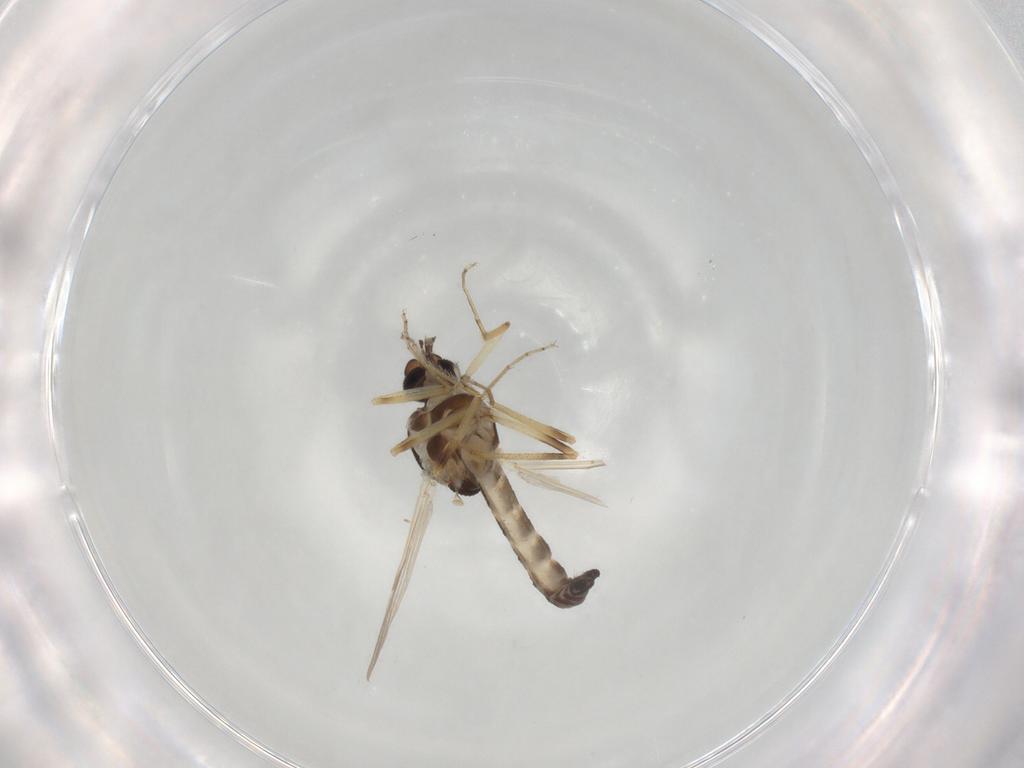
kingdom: Animalia
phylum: Arthropoda
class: Insecta
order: Diptera
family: Ceratopogonidae
